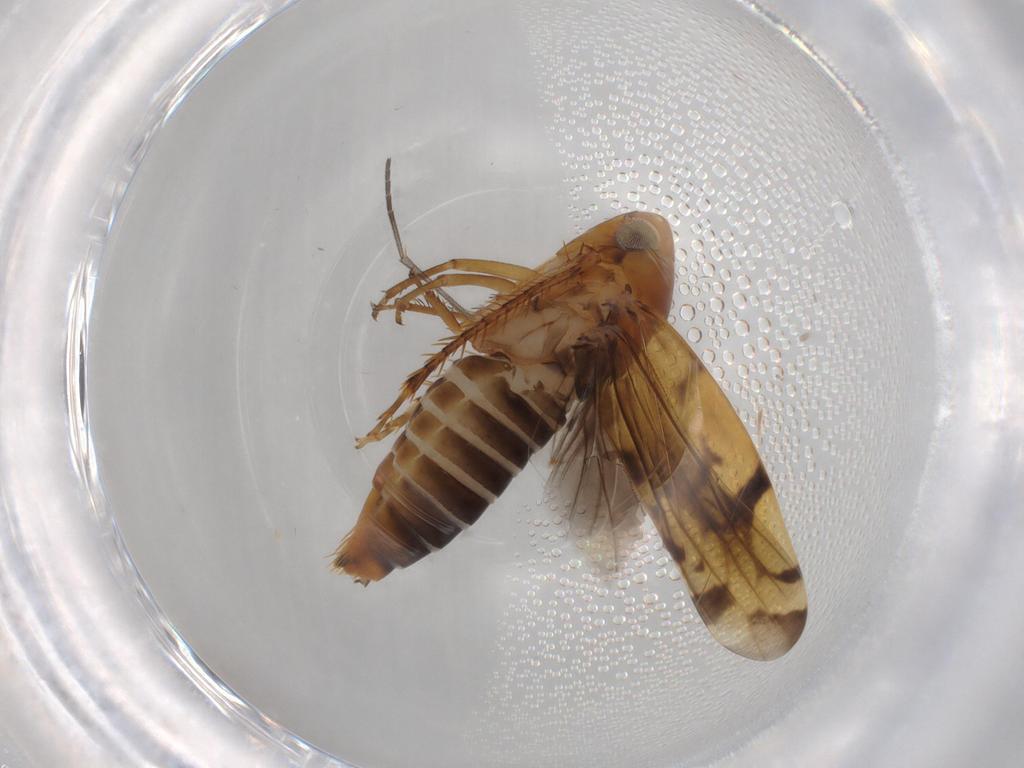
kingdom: Animalia
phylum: Arthropoda
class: Insecta
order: Hemiptera
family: Cicadellidae
